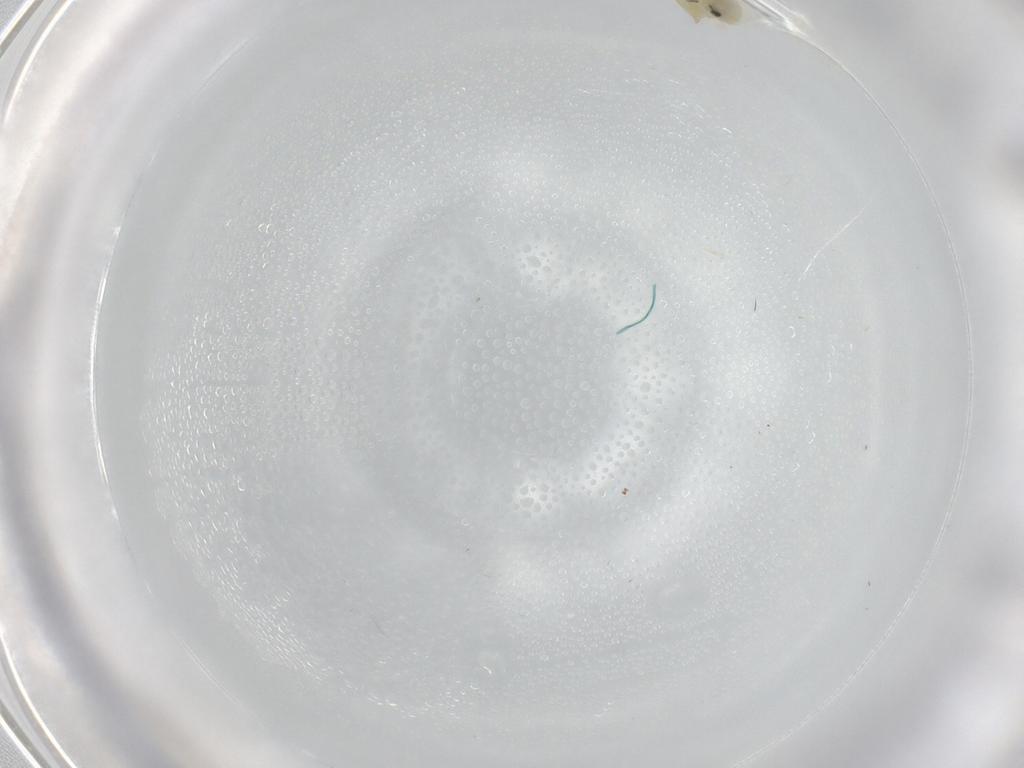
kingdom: Animalia
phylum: Arthropoda
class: Insecta
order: Hemiptera
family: Aleyrodidae
